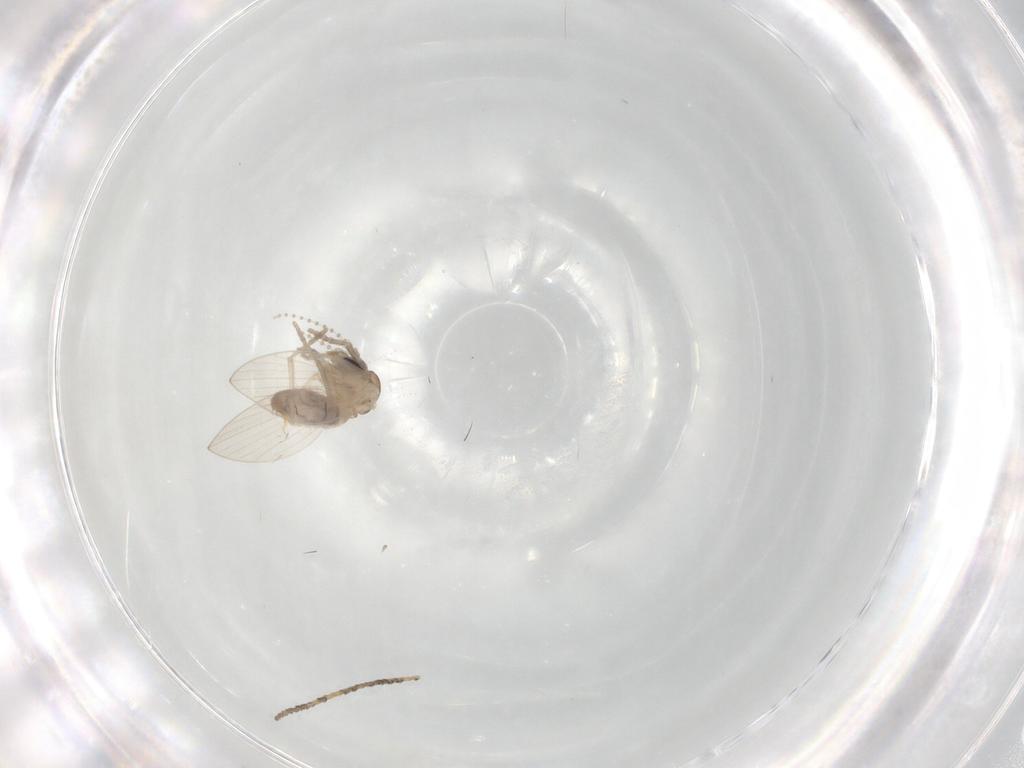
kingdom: Animalia
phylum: Arthropoda
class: Insecta
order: Diptera
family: Psychodidae
